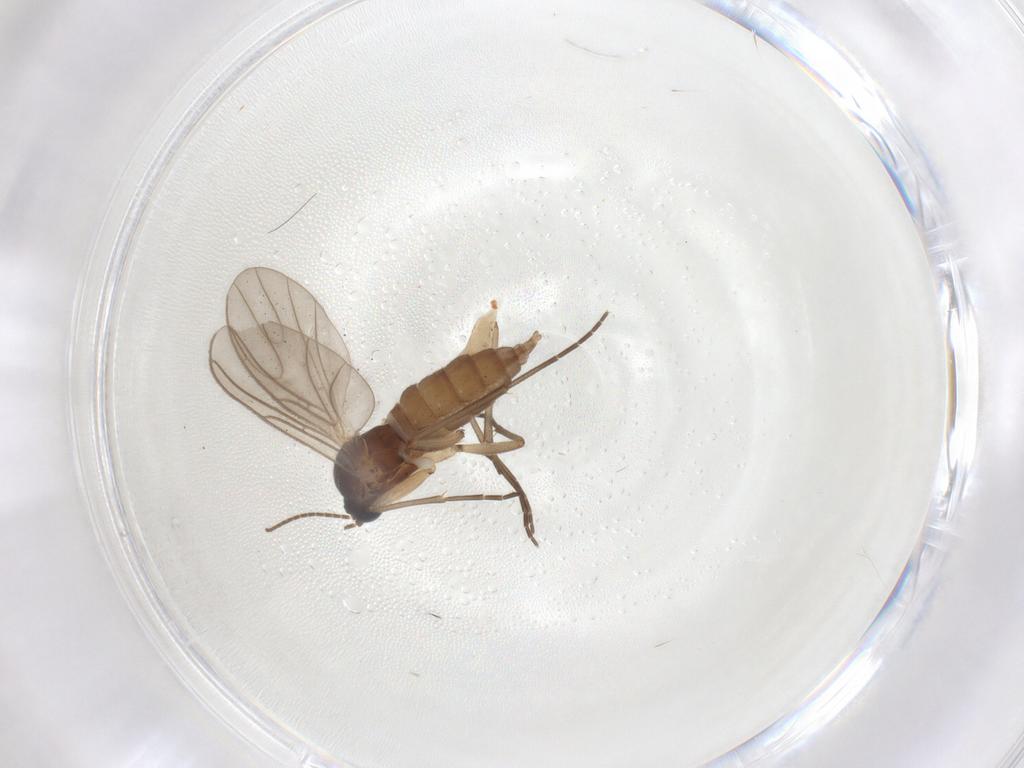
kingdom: Animalia
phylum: Arthropoda
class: Insecta
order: Diptera
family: Sciaridae
